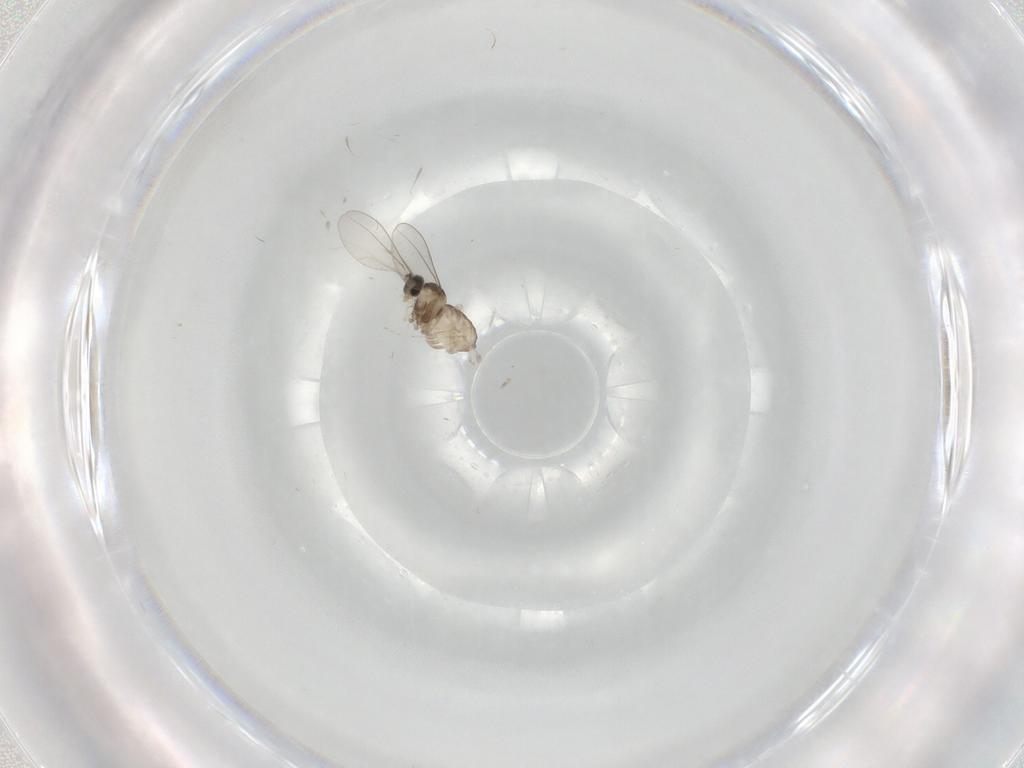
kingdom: Animalia
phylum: Arthropoda
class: Insecta
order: Diptera
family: Cecidomyiidae
